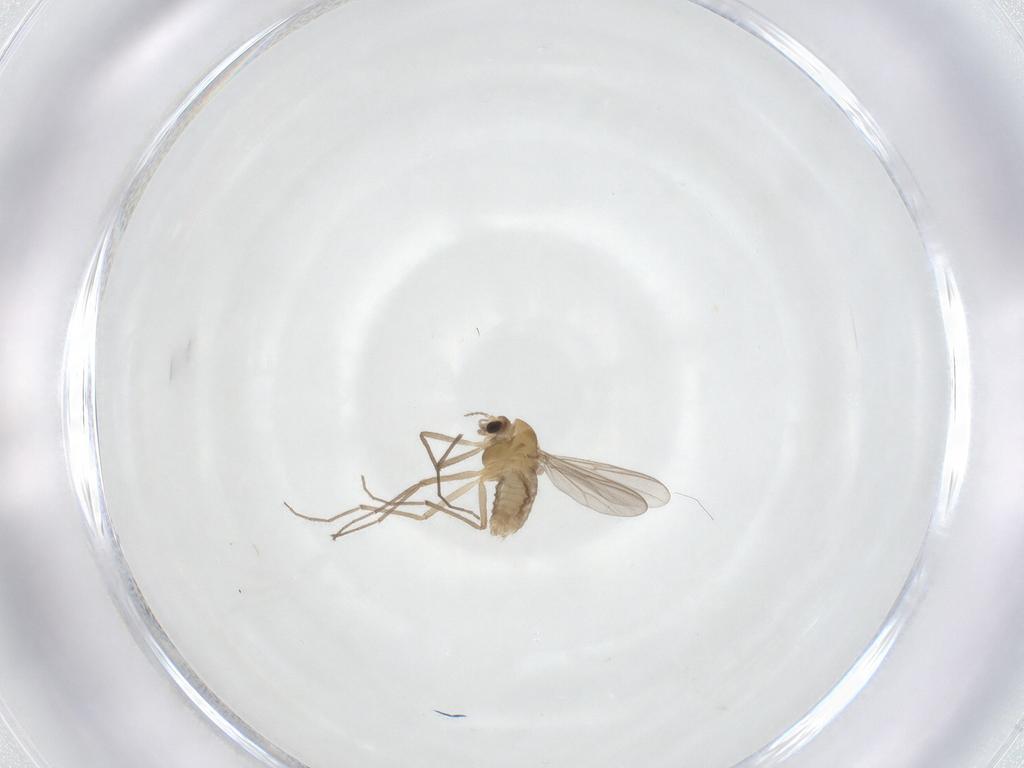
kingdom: Animalia
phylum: Arthropoda
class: Insecta
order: Diptera
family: Chironomidae
